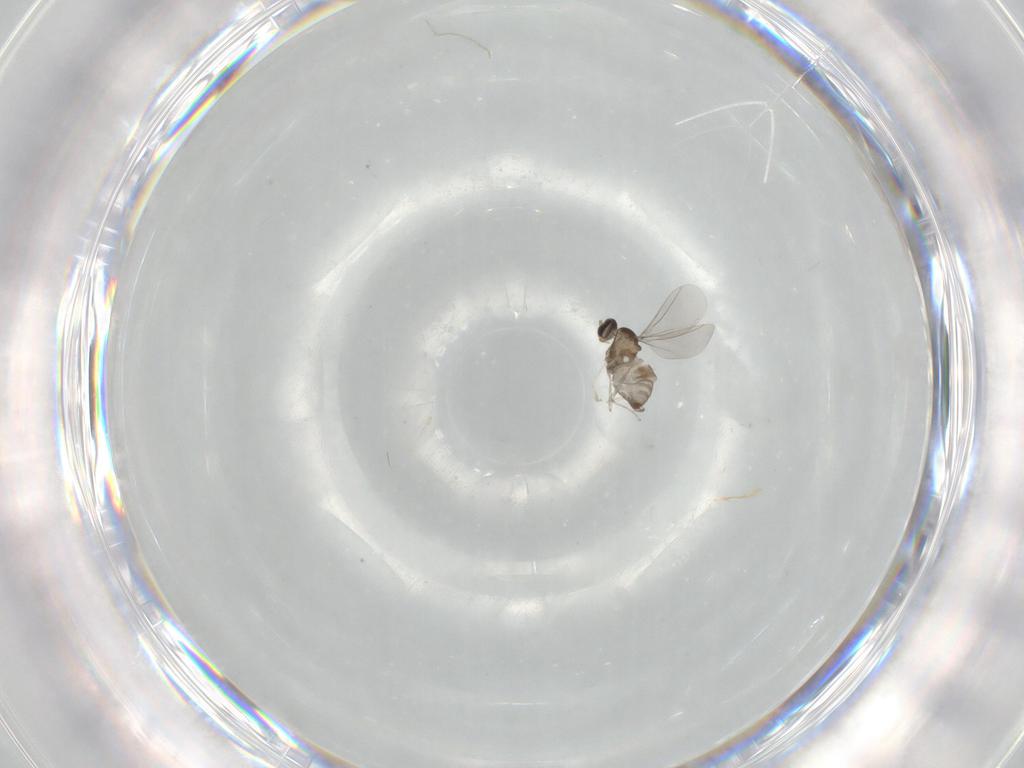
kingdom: Animalia
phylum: Arthropoda
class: Insecta
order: Diptera
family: Cecidomyiidae
